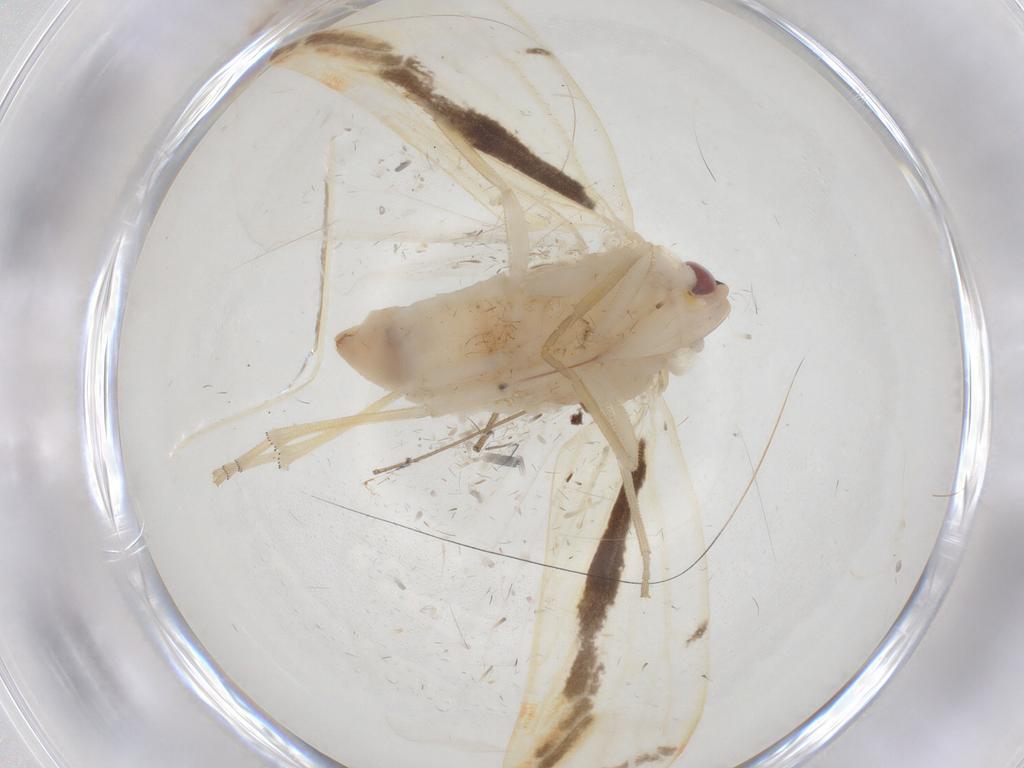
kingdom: Animalia
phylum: Arthropoda
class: Insecta
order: Hemiptera
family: Derbidae
